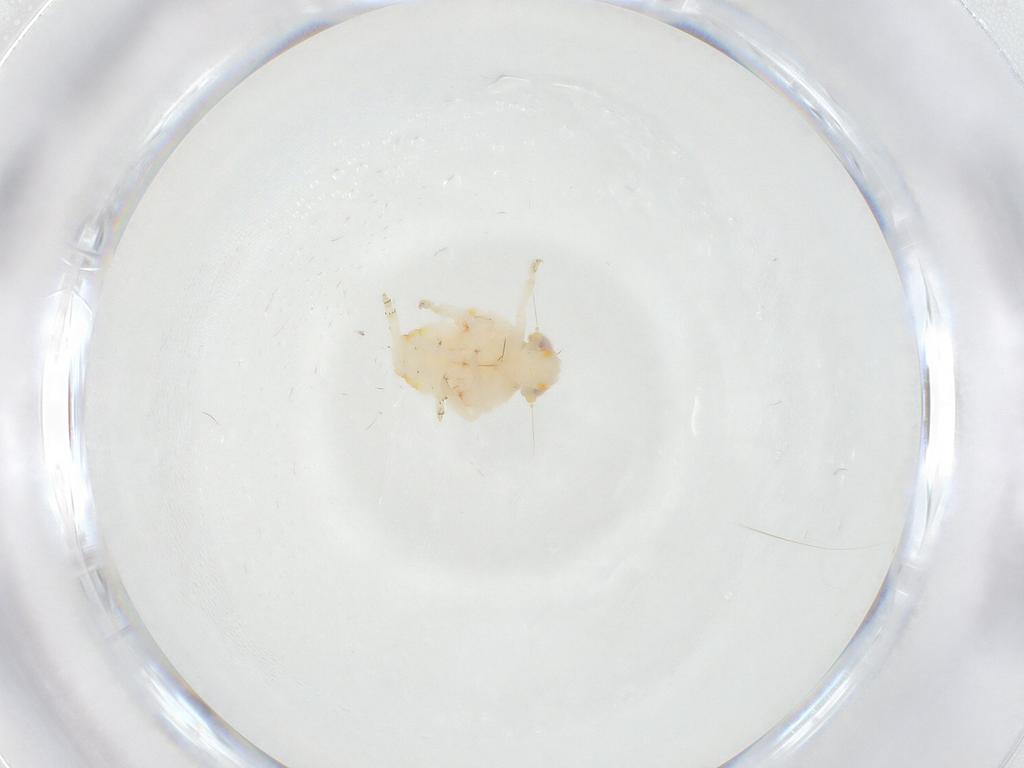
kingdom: Animalia
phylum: Arthropoda
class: Insecta
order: Hemiptera
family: Nogodinidae
